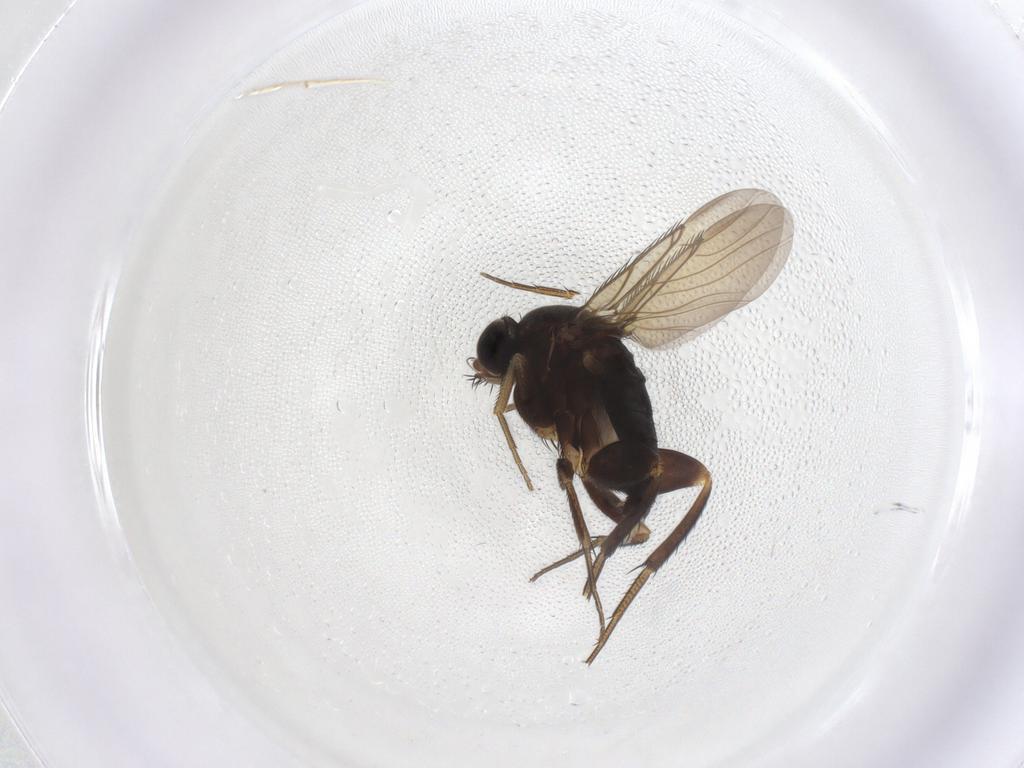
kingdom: Animalia
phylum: Arthropoda
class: Insecta
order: Diptera
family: Phoridae
